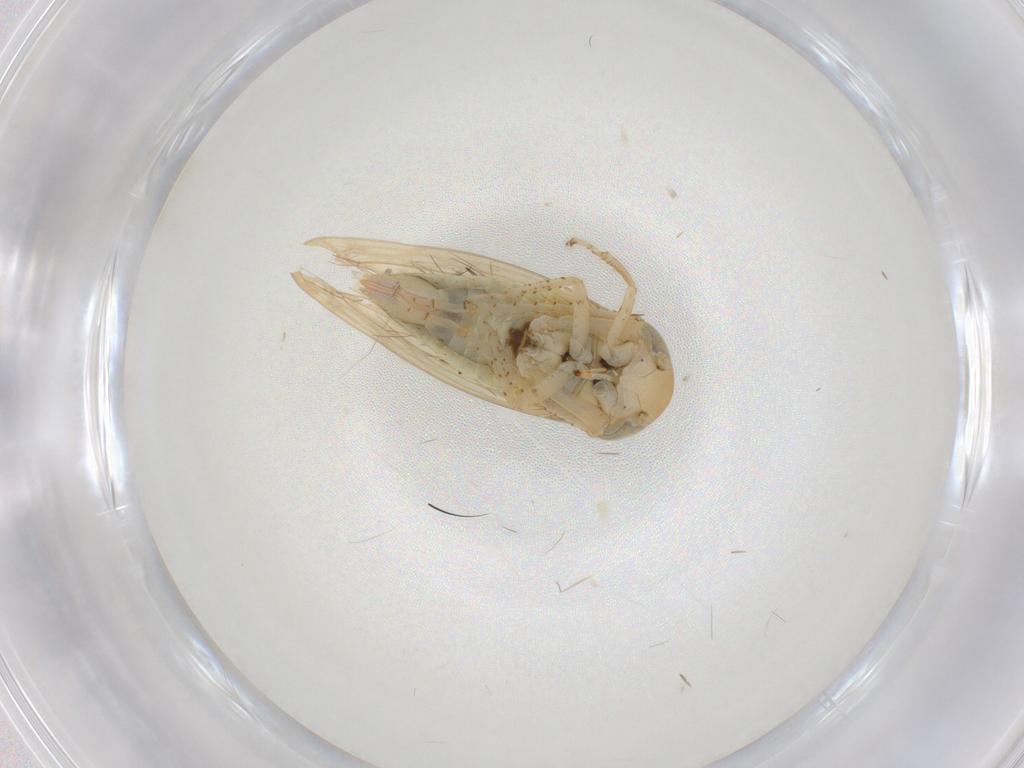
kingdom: Animalia
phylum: Arthropoda
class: Insecta
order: Hemiptera
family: Cicadellidae
